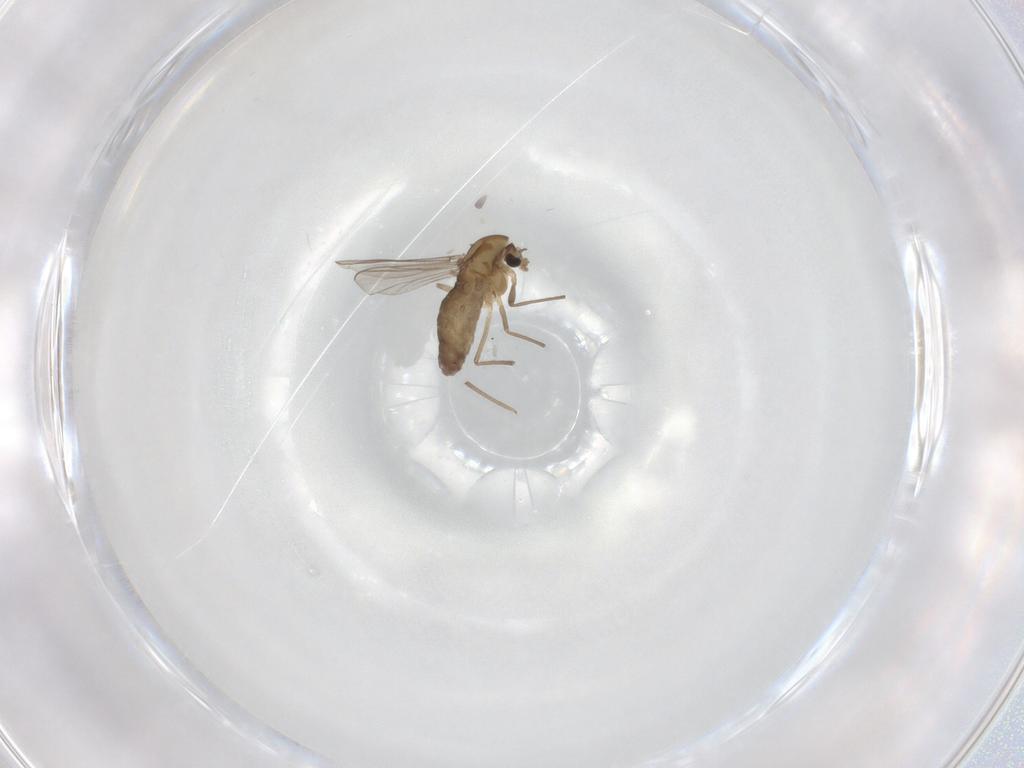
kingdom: Animalia
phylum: Arthropoda
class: Insecta
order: Diptera
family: Chironomidae
